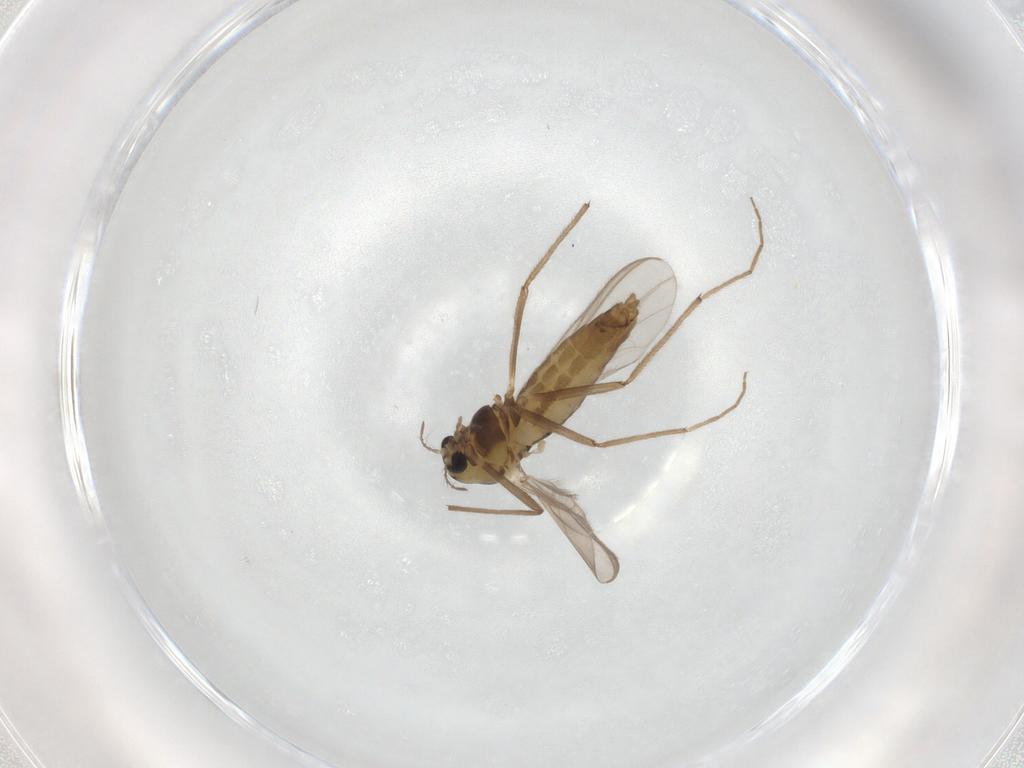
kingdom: Animalia
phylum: Arthropoda
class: Insecta
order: Diptera
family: Chironomidae
